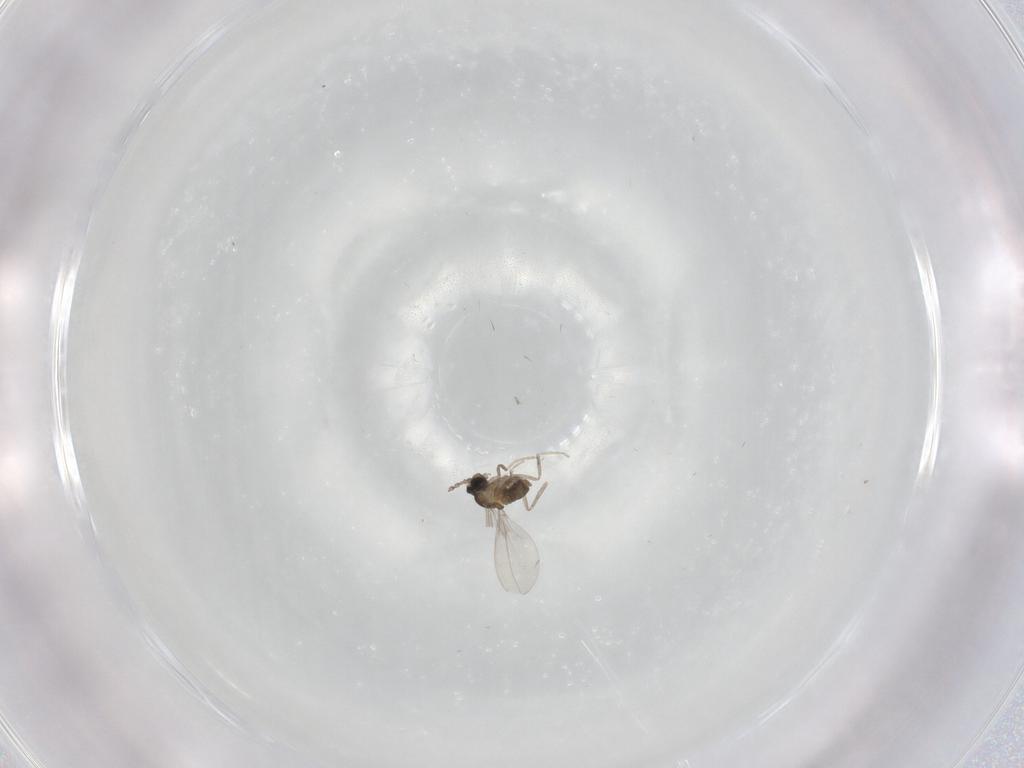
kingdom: Animalia
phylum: Arthropoda
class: Insecta
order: Diptera
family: Cecidomyiidae
